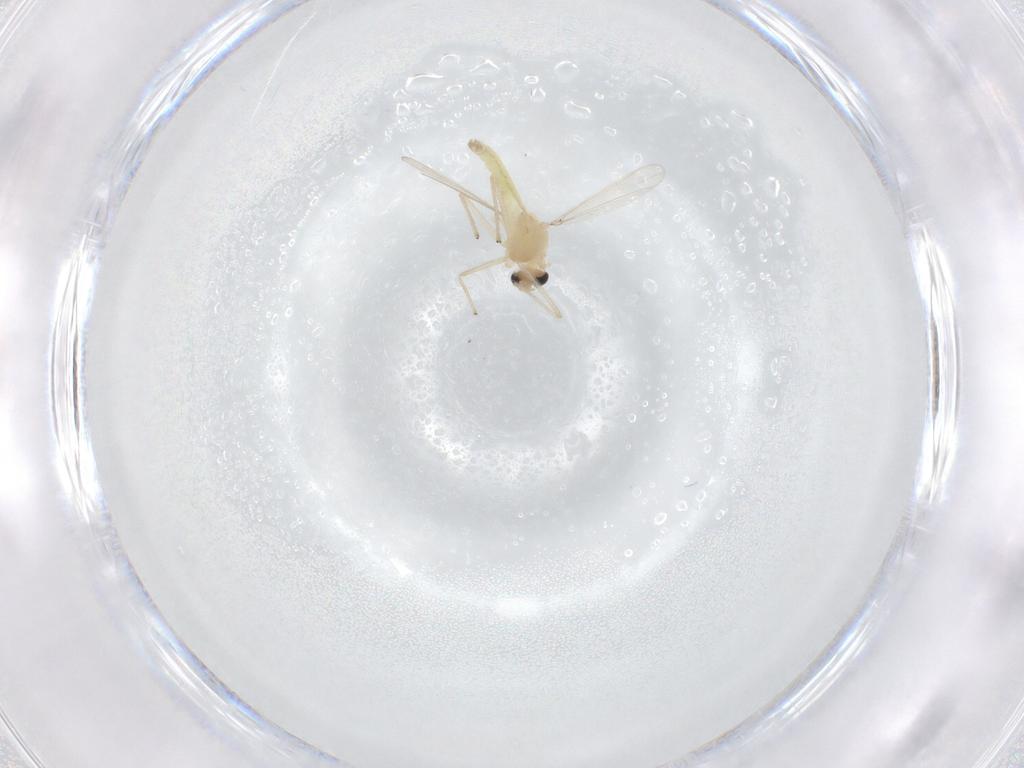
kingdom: Animalia
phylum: Arthropoda
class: Insecta
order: Diptera
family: Chironomidae
